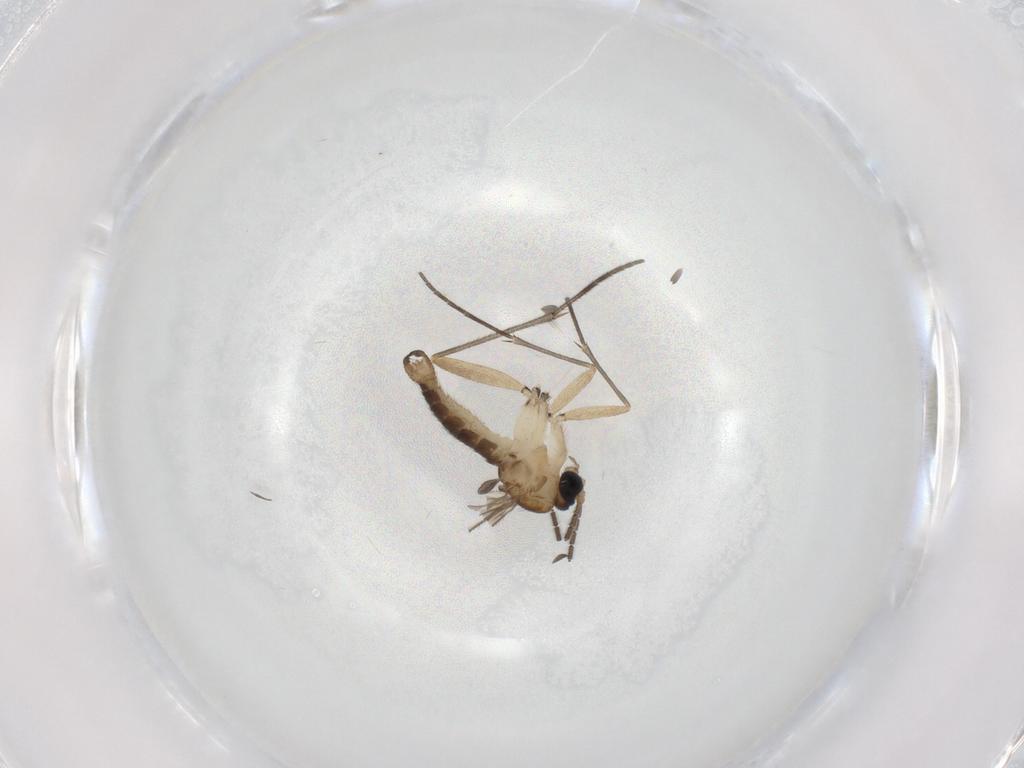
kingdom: Animalia
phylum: Arthropoda
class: Insecta
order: Diptera
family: Sciaridae
